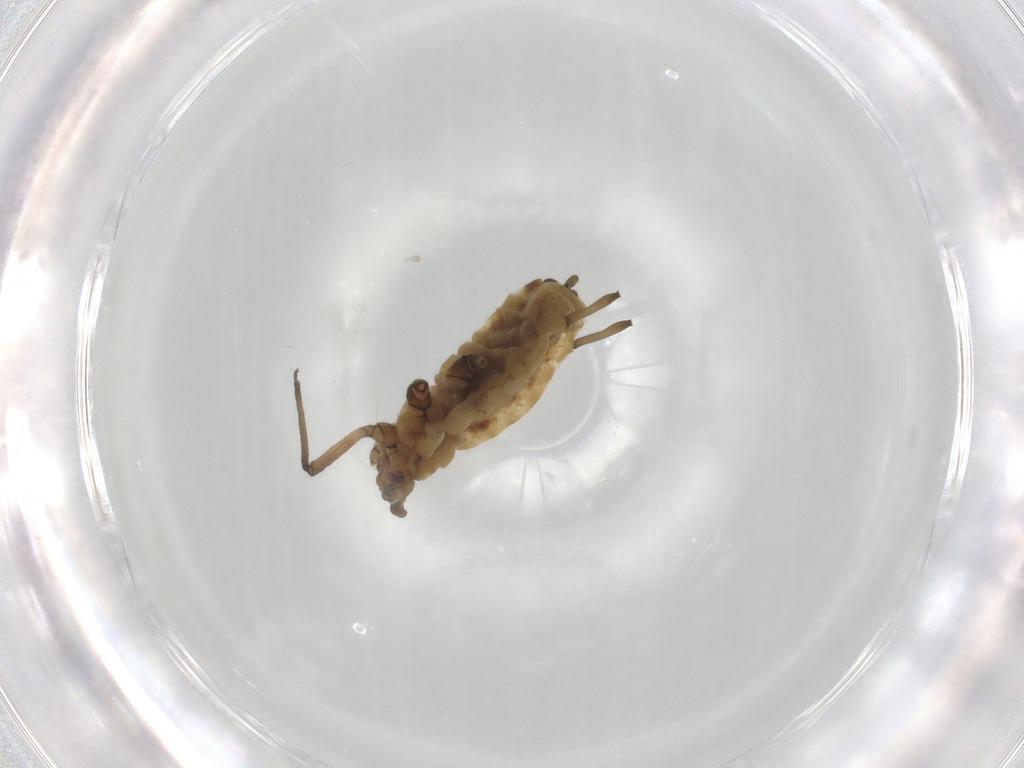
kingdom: Animalia
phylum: Arthropoda
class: Insecta
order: Hemiptera
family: Aphididae
